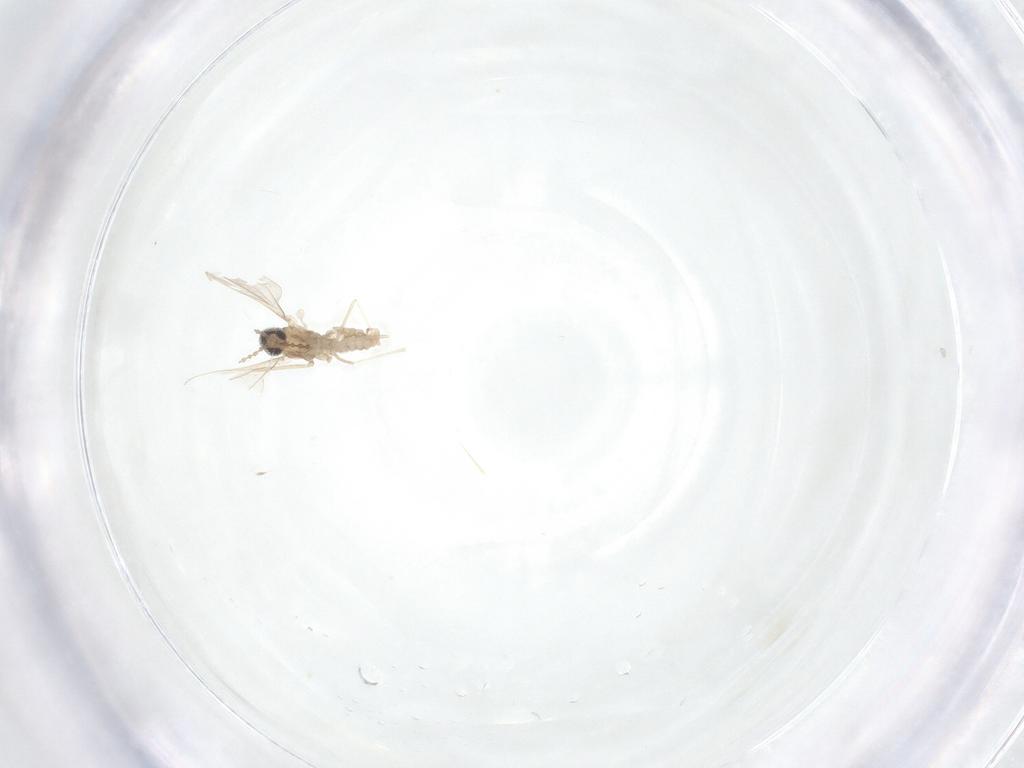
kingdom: Animalia
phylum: Arthropoda
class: Insecta
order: Diptera
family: Cecidomyiidae
